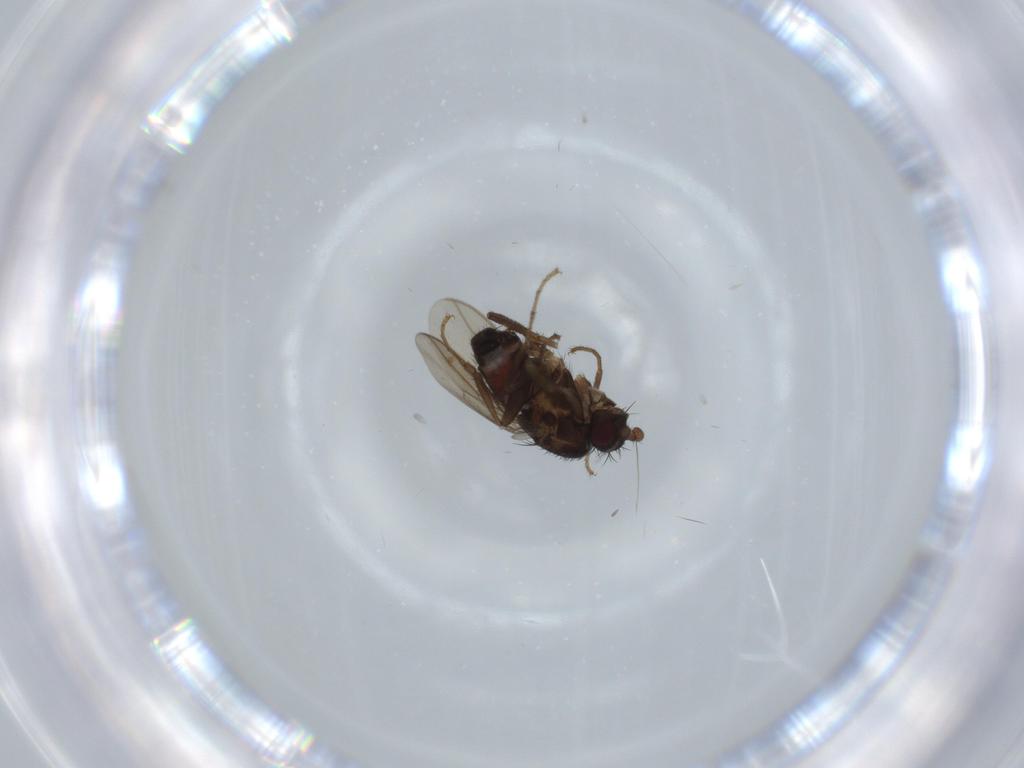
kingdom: Animalia
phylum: Arthropoda
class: Insecta
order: Diptera
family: Sphaeroceridae
